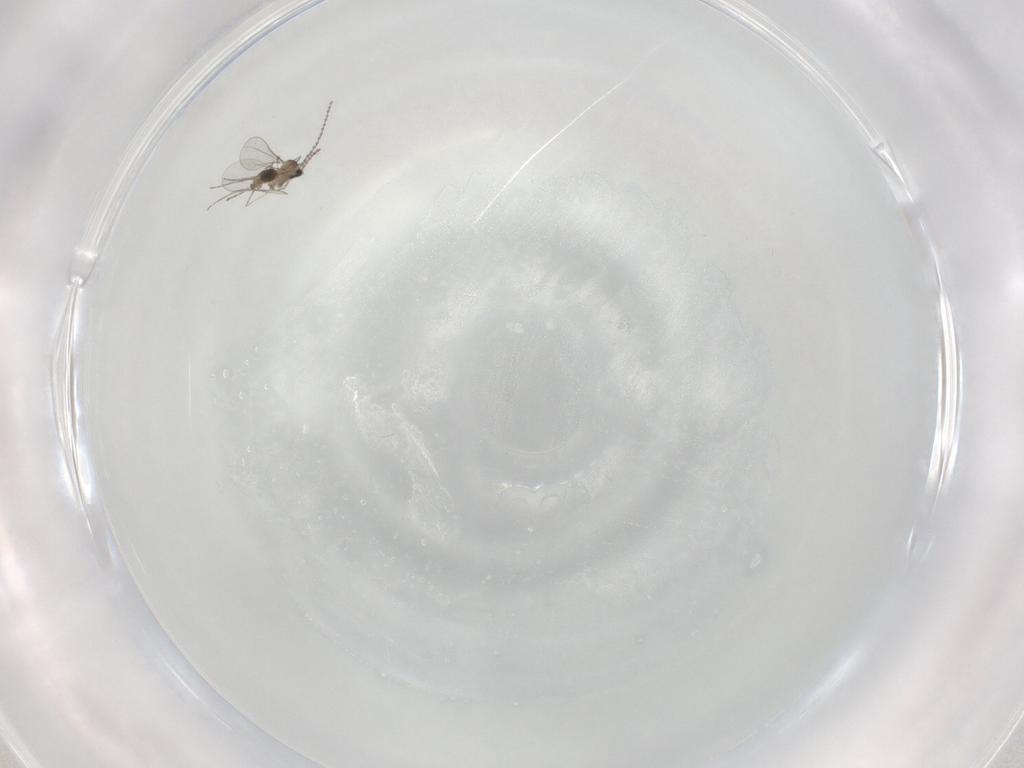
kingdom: Animalia
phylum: Arthropoda
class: Insecta
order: Diptera
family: Cecidomyiidae
